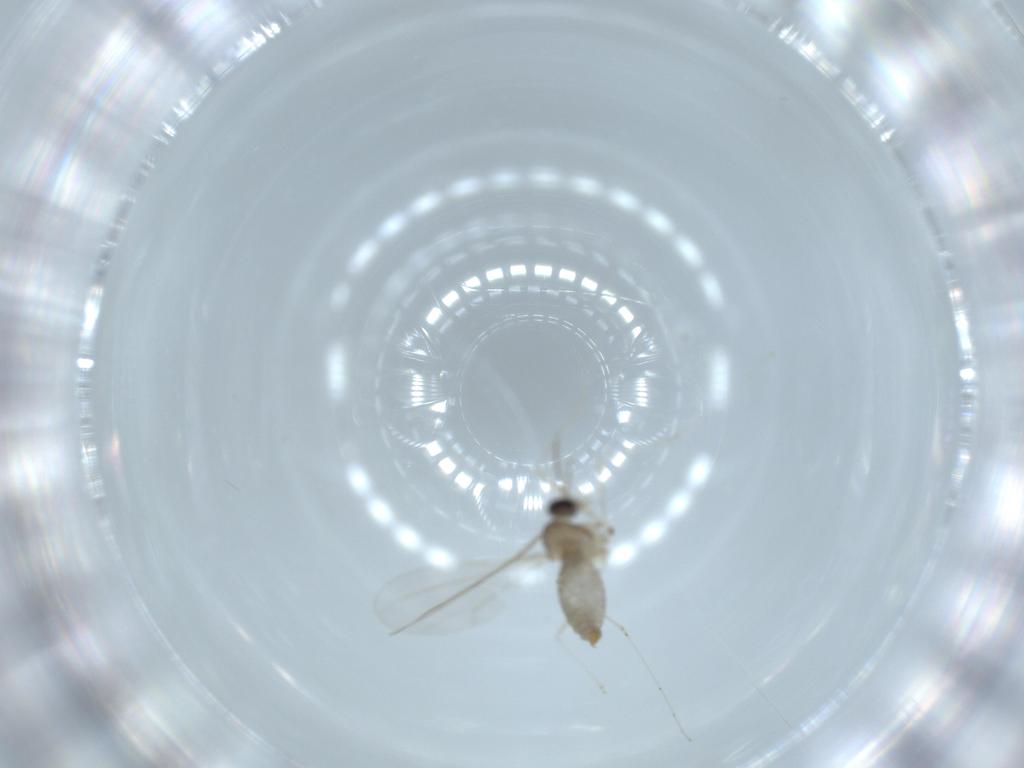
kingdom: Animalia
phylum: Arthropoda
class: Insecta
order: Diptera
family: Cecidomyiidae
